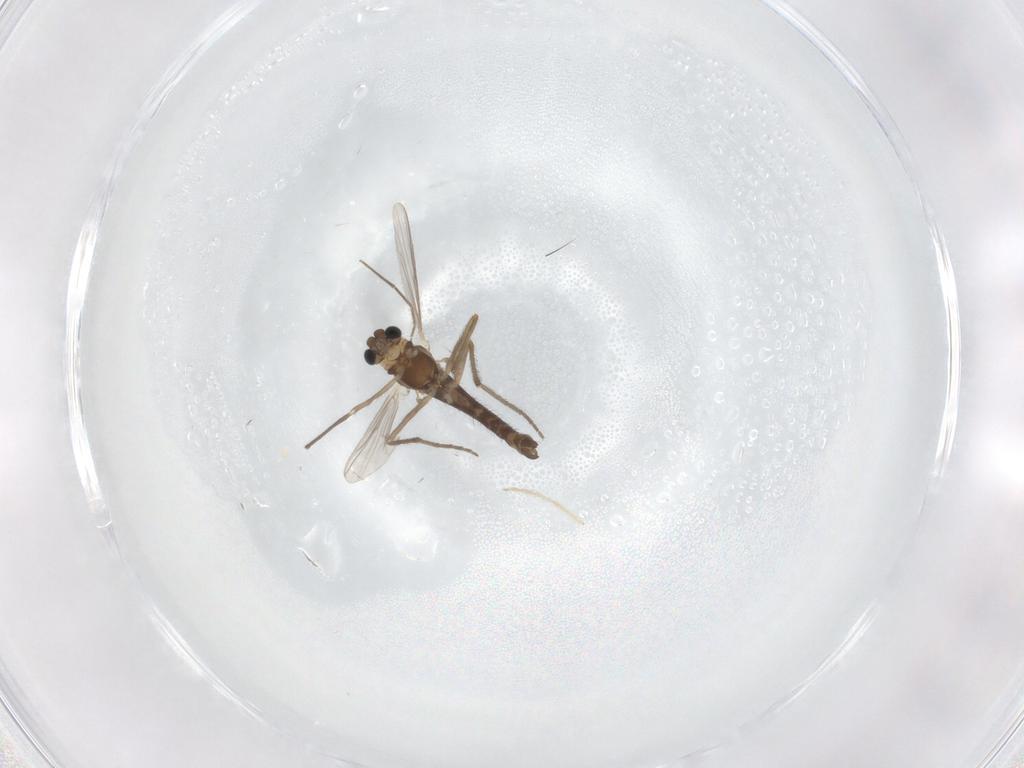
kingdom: Animalia
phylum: Arthropoda
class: Insecta
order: Diptera
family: Chironomidae
